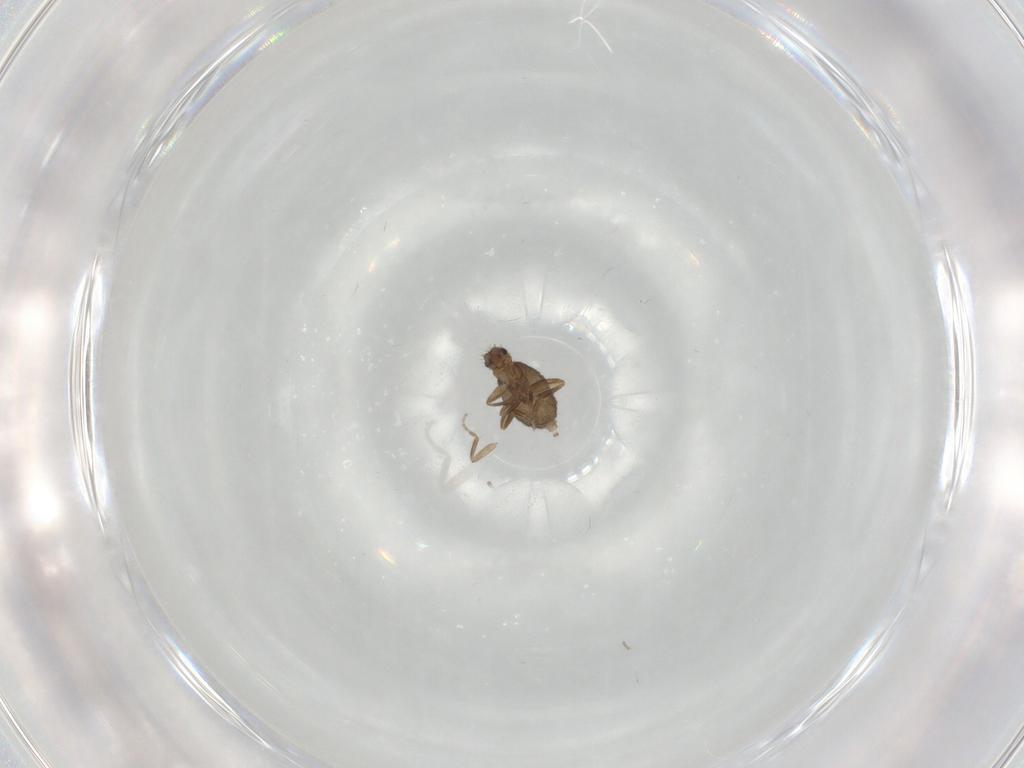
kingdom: Animalia
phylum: Arthropoda
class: Insecta
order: Diptera
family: Phoridae
